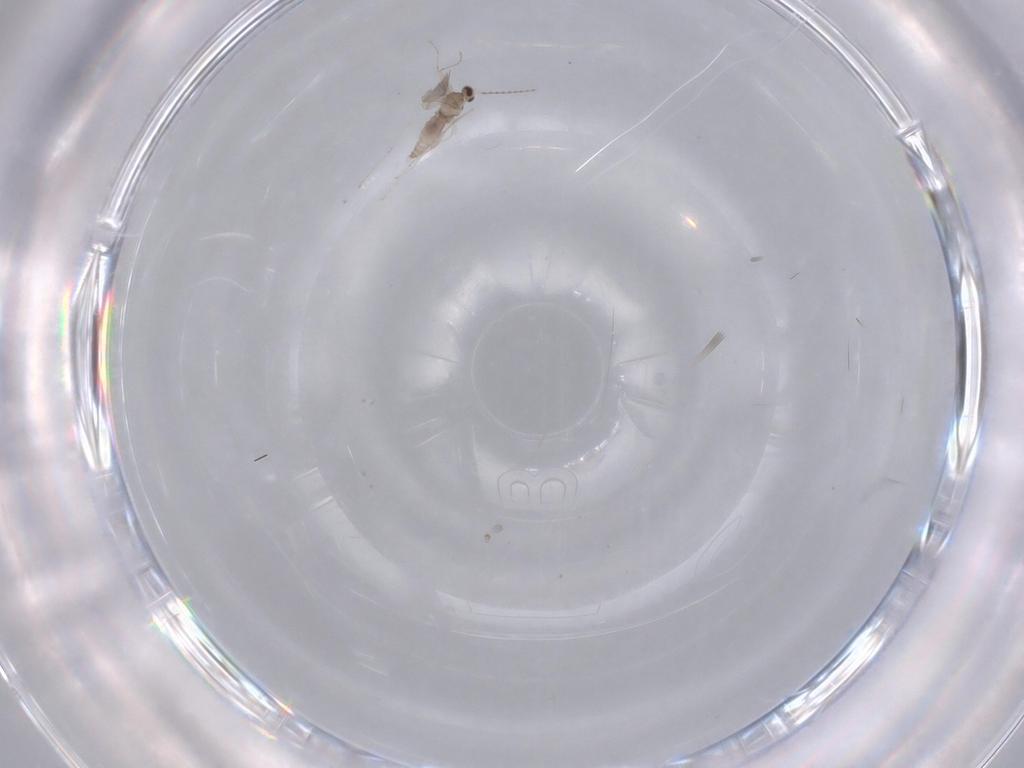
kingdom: Animalia
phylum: Arthropoda
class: Insecta
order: Diptera
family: Cecidomyiidae
